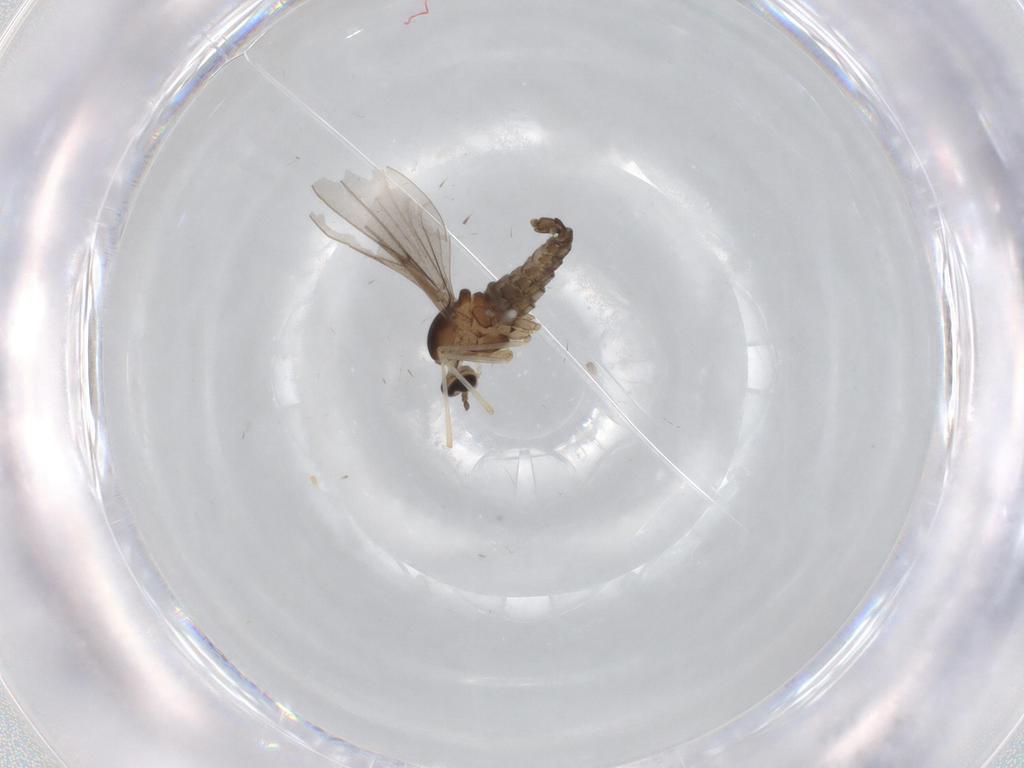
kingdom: Animalia
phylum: Arthropoda
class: Insecta
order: Diptera
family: Cecidomyiidae
